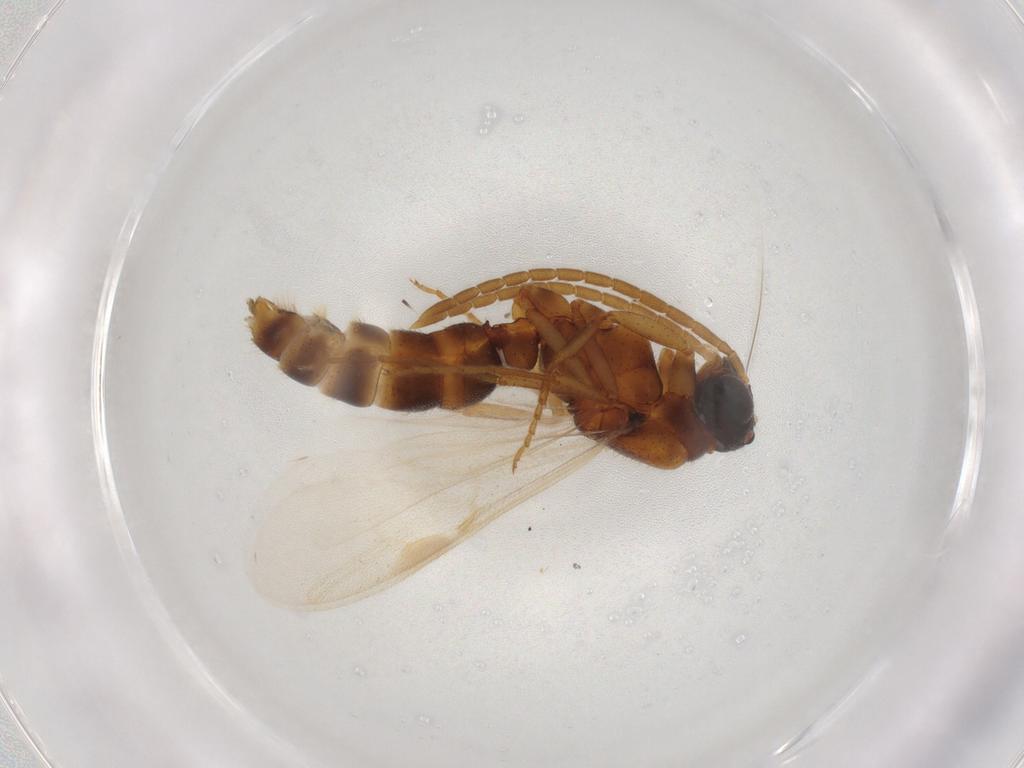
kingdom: Animalia
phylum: Arthropoda
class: Insecta
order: Hymenoptera
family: Formicidae
